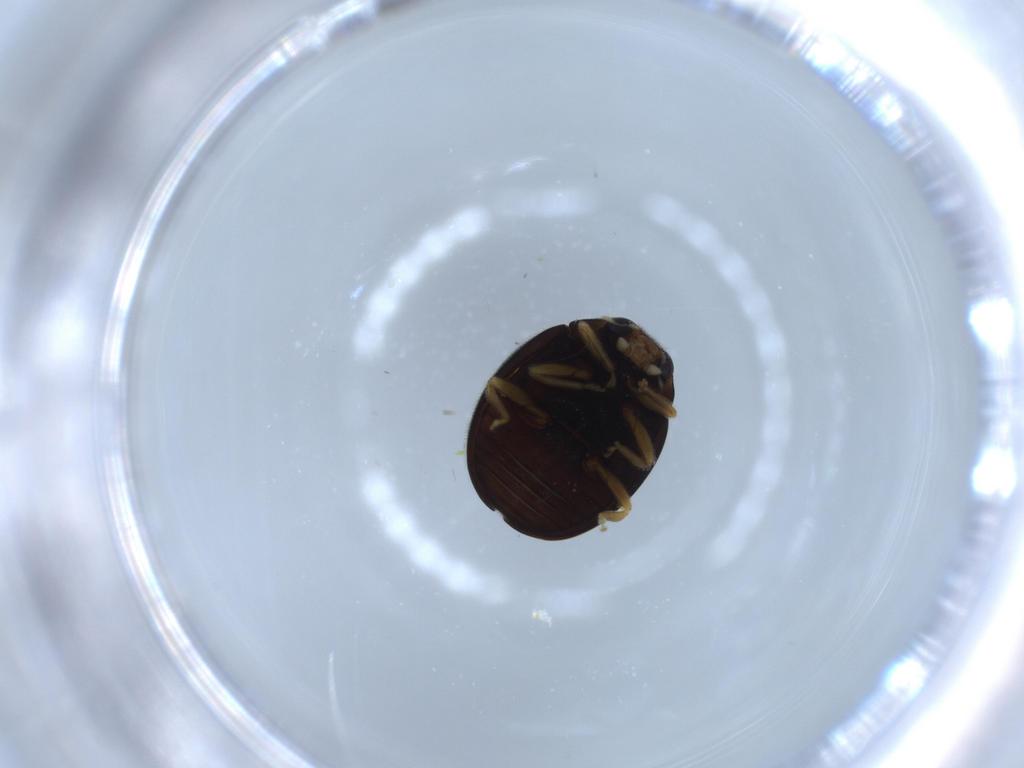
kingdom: Animalia
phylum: Arthropoda
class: Insecta
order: Coleoptera
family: Coccinellidae
